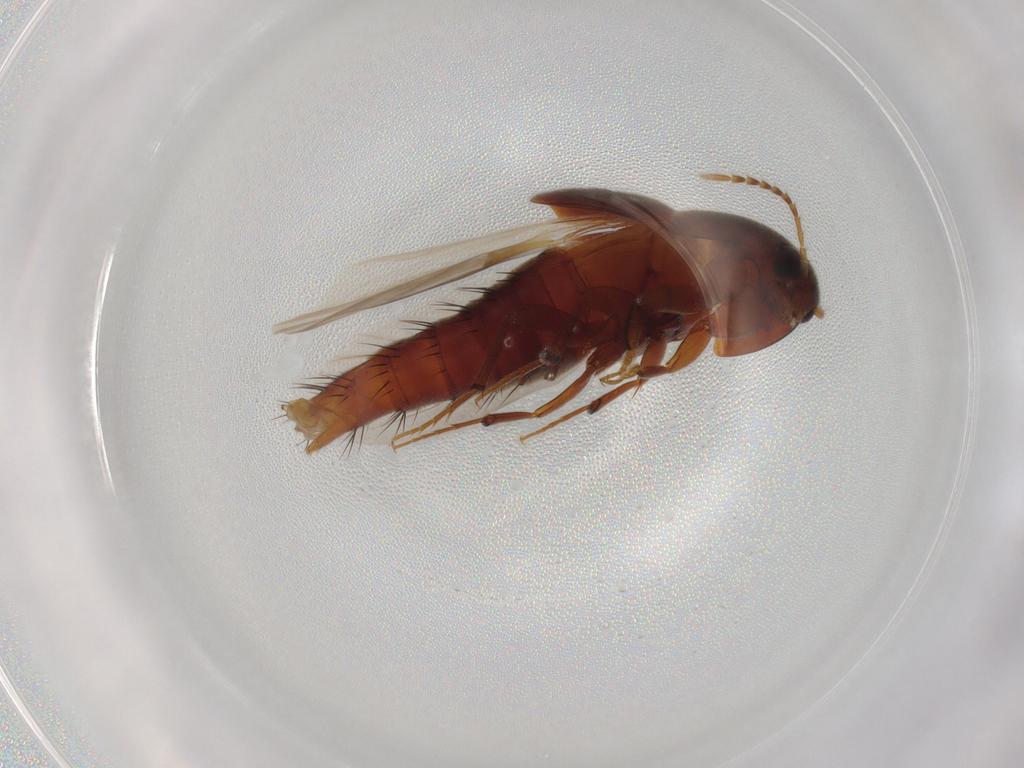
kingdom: Animalia
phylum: Arthropoda
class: Insecta
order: Coleoptera
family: Staphylinidae
